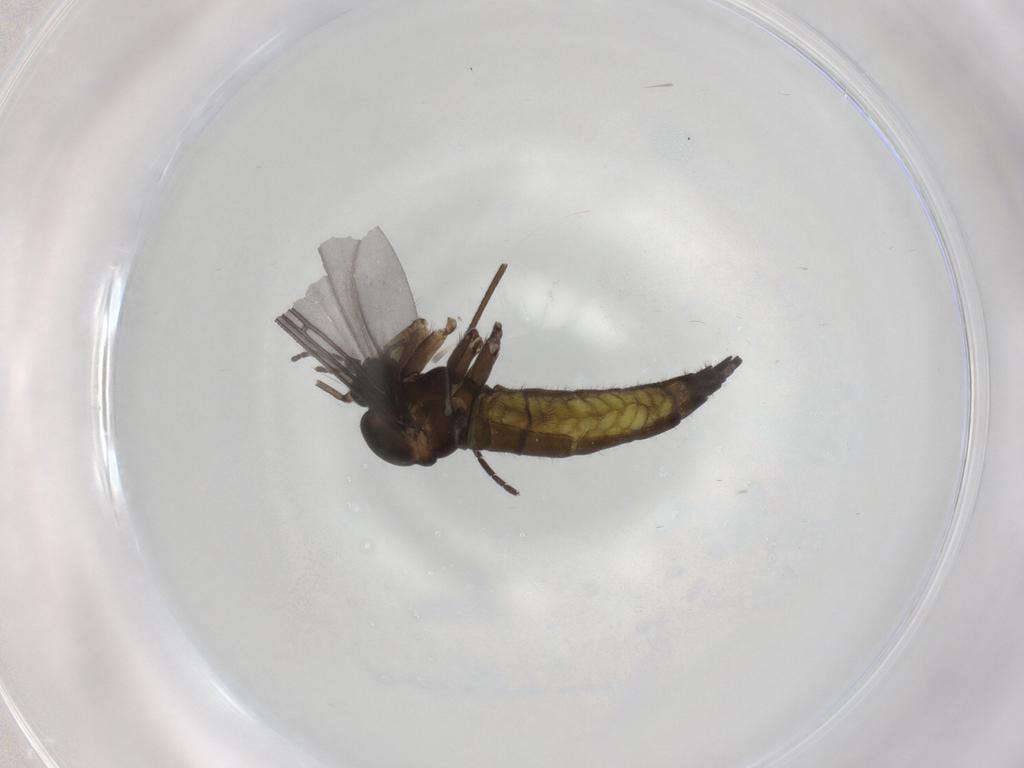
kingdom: Animalia
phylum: Arthropoda
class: Insecta
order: Diptera
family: Sciaridae
